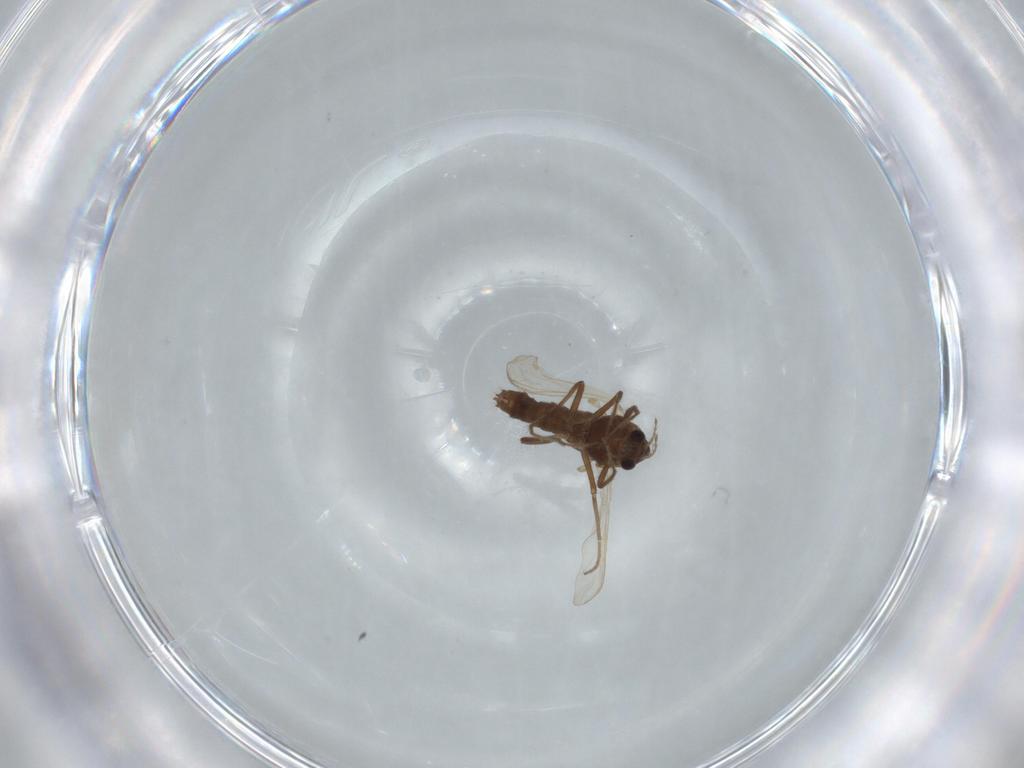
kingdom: Animalia
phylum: Arthropoda
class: Insecta
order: Diptera
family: Chironomidae
